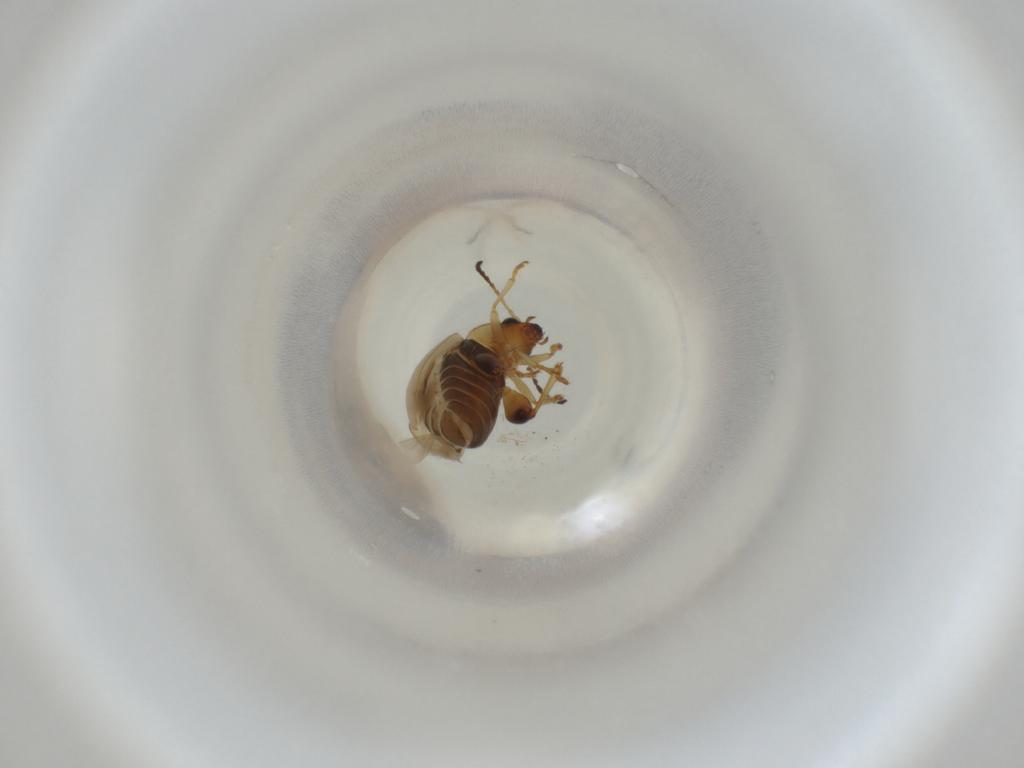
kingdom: Animalia
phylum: Arthropoda
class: Insecta
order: Coleoptera
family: Chrysomelidae
